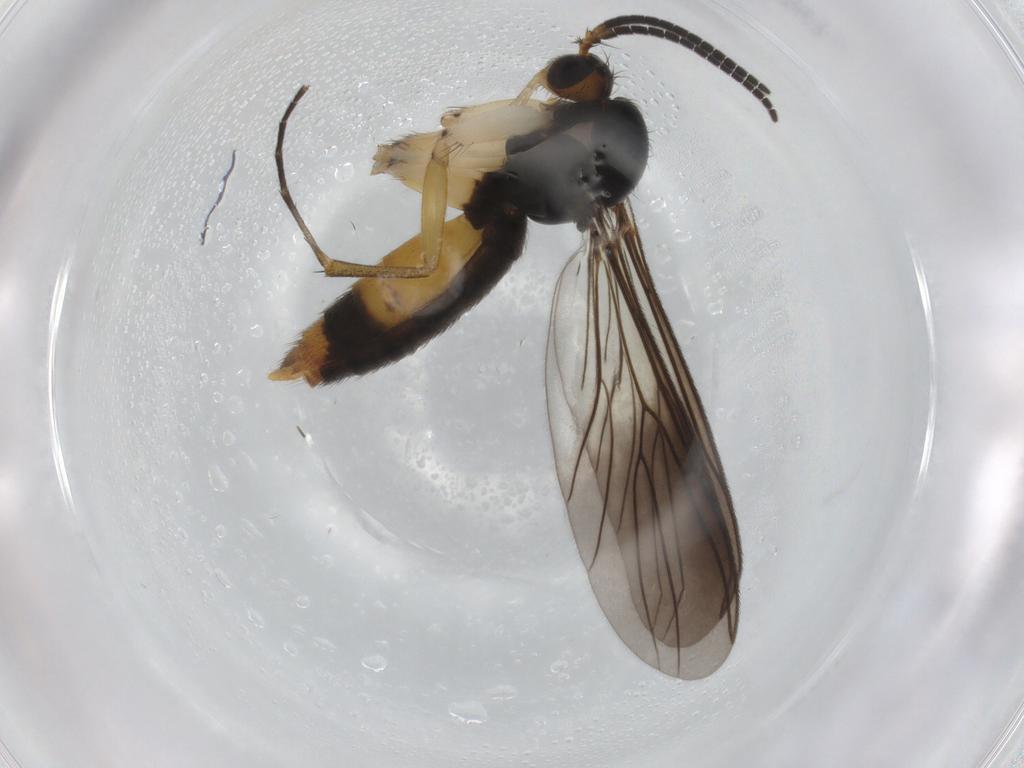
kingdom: Animalia
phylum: Arthropoda
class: Insecta
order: Diptera
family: Mycetophilidae
